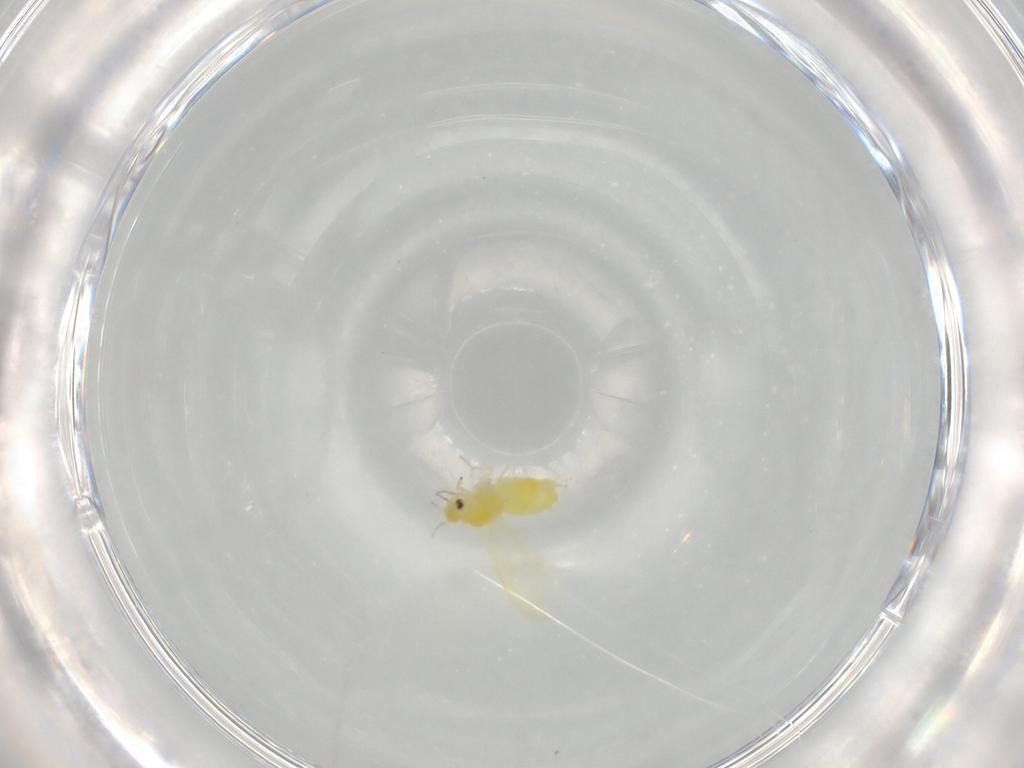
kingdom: Animalia
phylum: Arthropoda
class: Insecta
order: Hemiptera
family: Aleyrodidae
